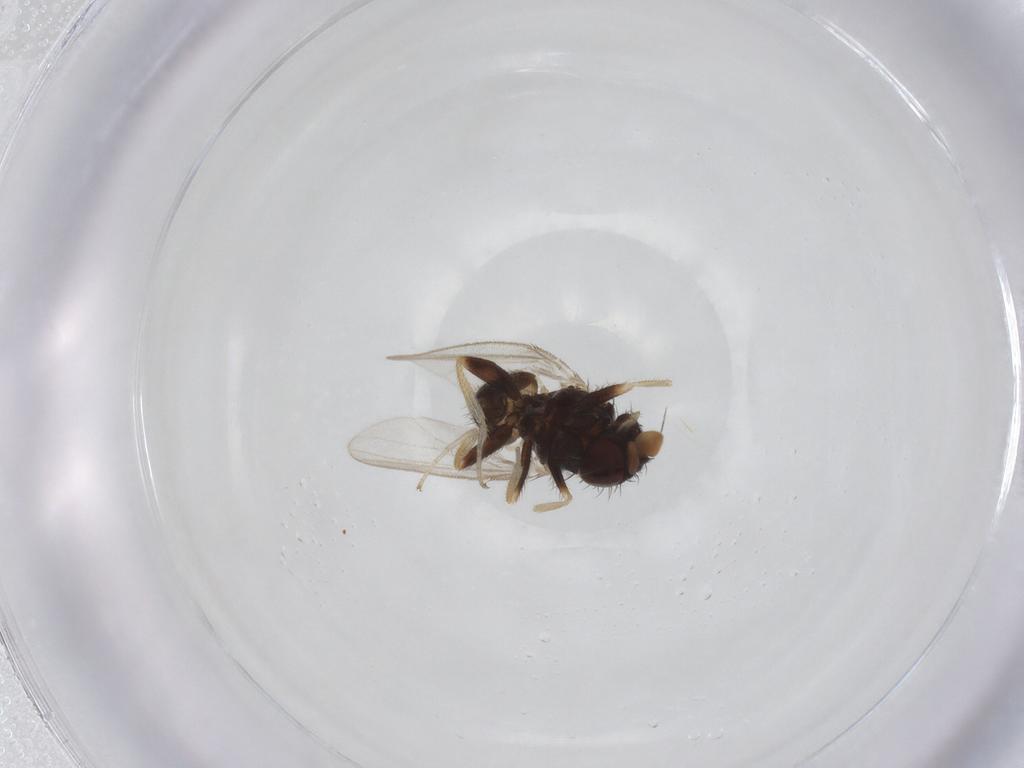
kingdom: Animalia
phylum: Arthropoda
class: Insecta
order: Diptera
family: Milichiidae
